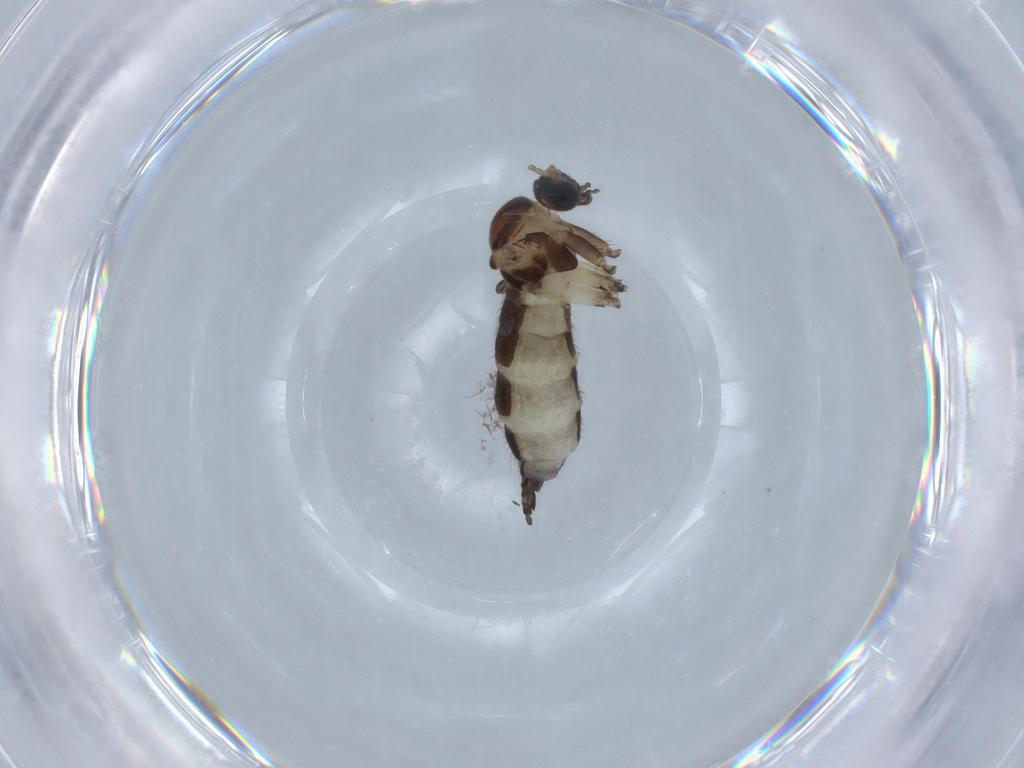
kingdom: Animalia
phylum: Arthropoda
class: Insecta
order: Diptera
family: Sciaridae
